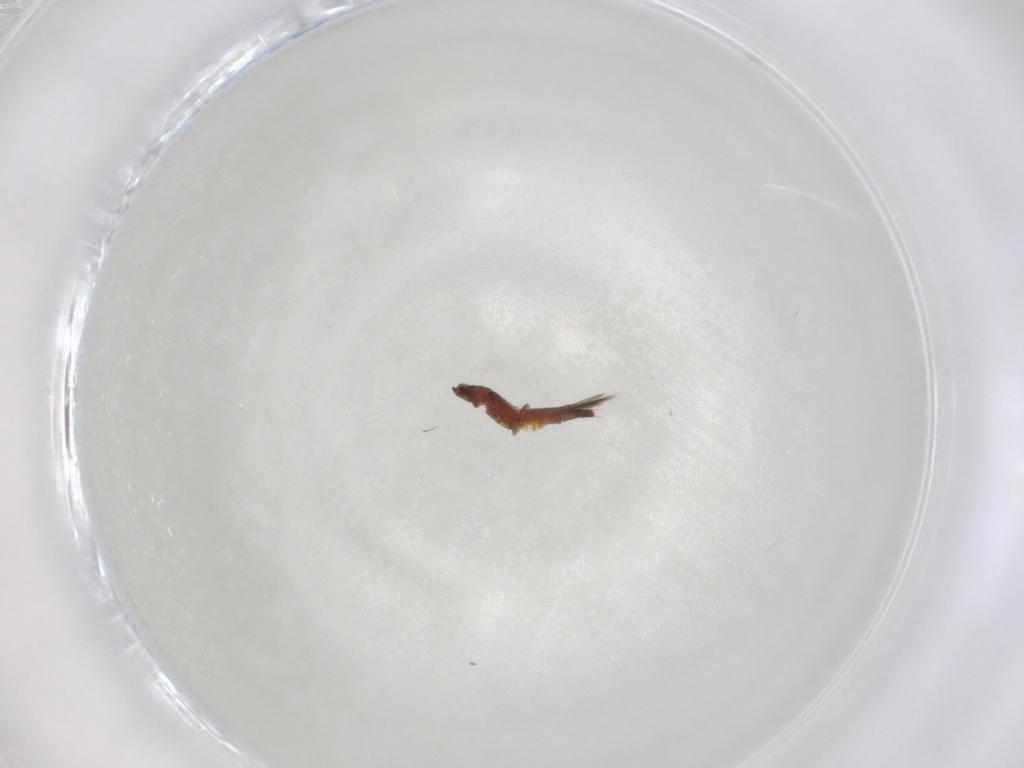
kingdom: Animalia
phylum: Arthropoda
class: Insecta
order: Thysanoptera
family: Thripidae
